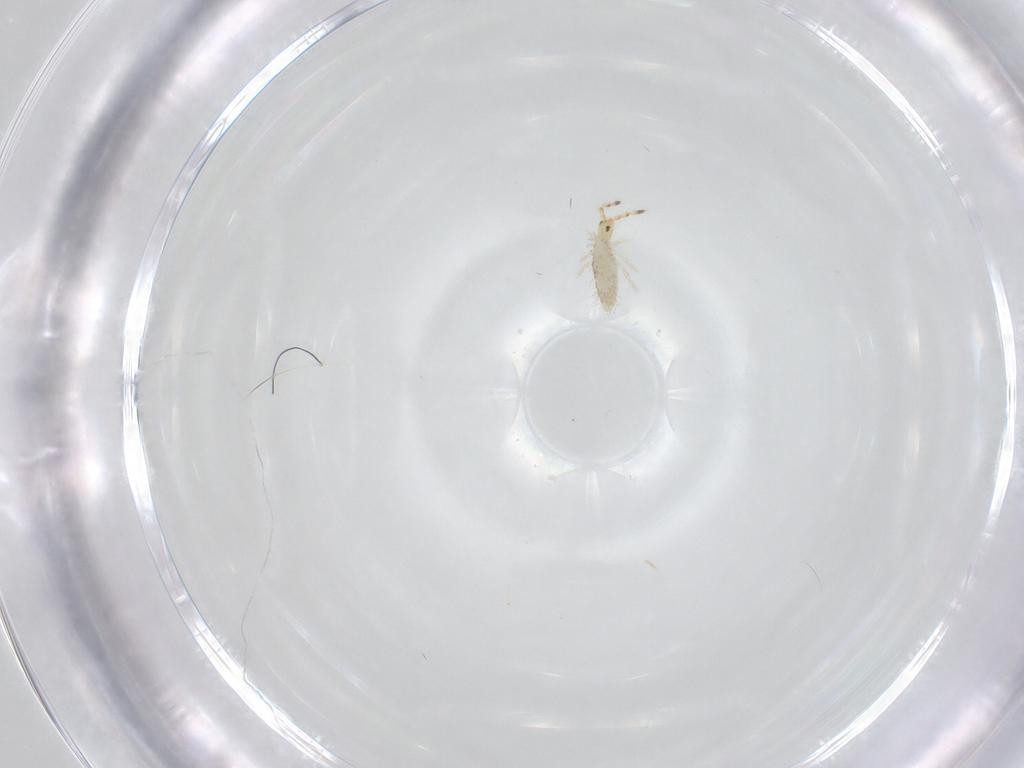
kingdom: Animalia
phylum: Arthropoda
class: Collembola
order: Entomobryomorpha
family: Entomobryidae
